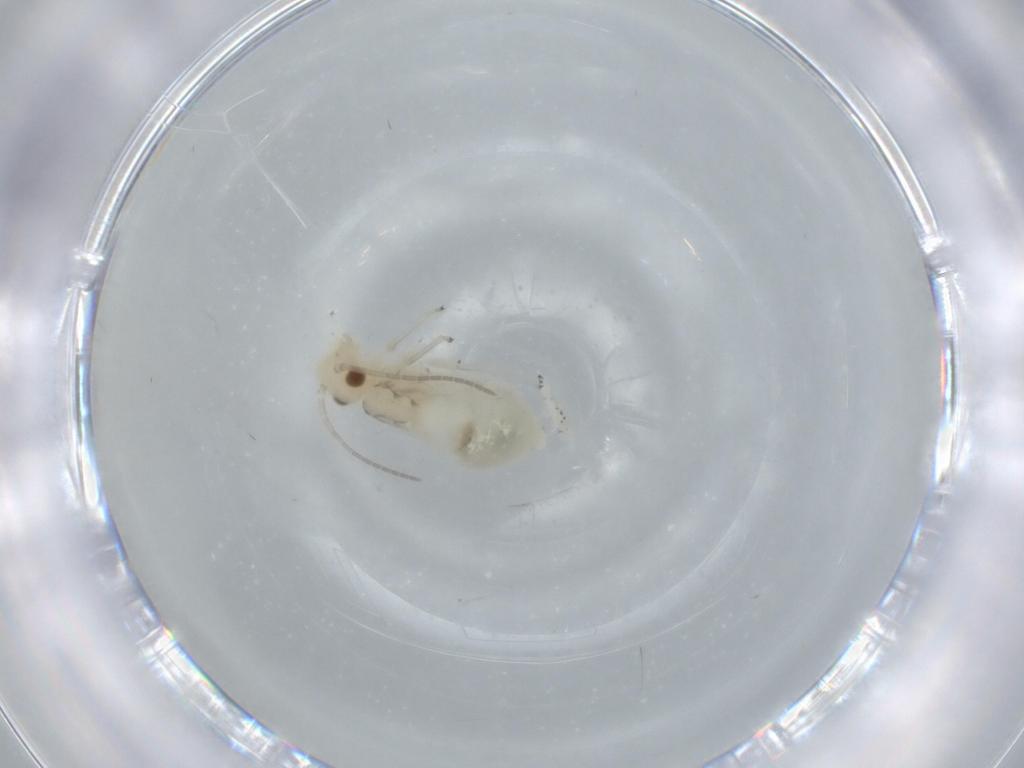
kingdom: Animalia
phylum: Arthropoda
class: Insecta
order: Psocodea
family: Caeciliusidae
